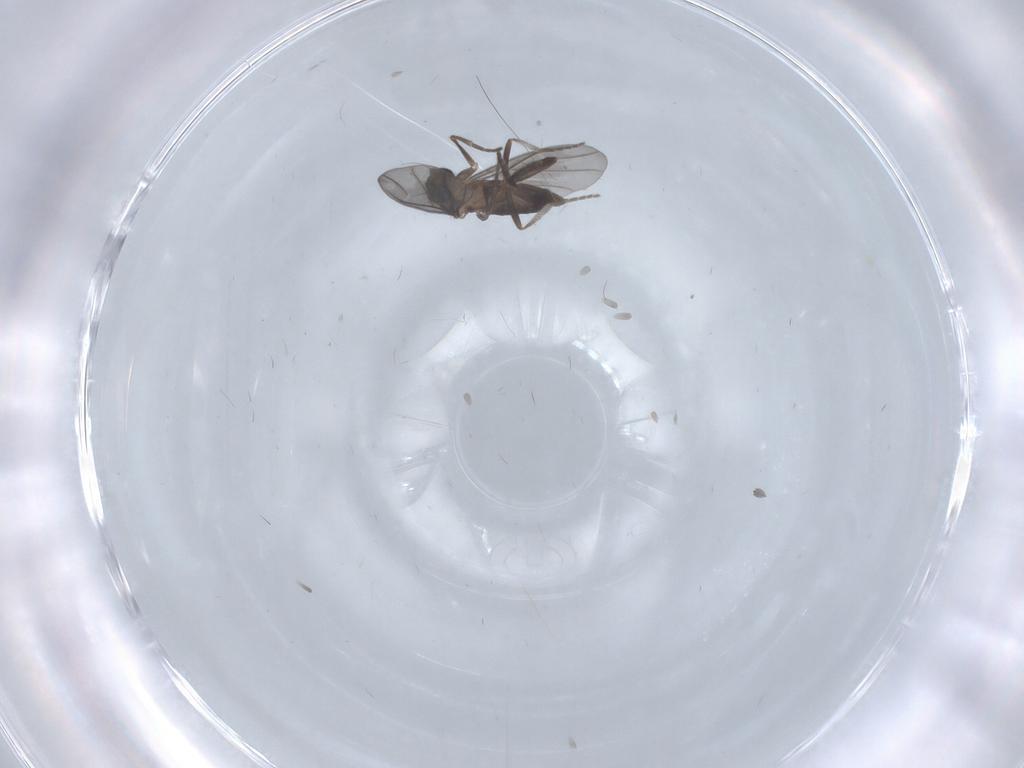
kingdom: Animalia
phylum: Arthropoda
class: Insecta
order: Diptera
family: Phoridae
